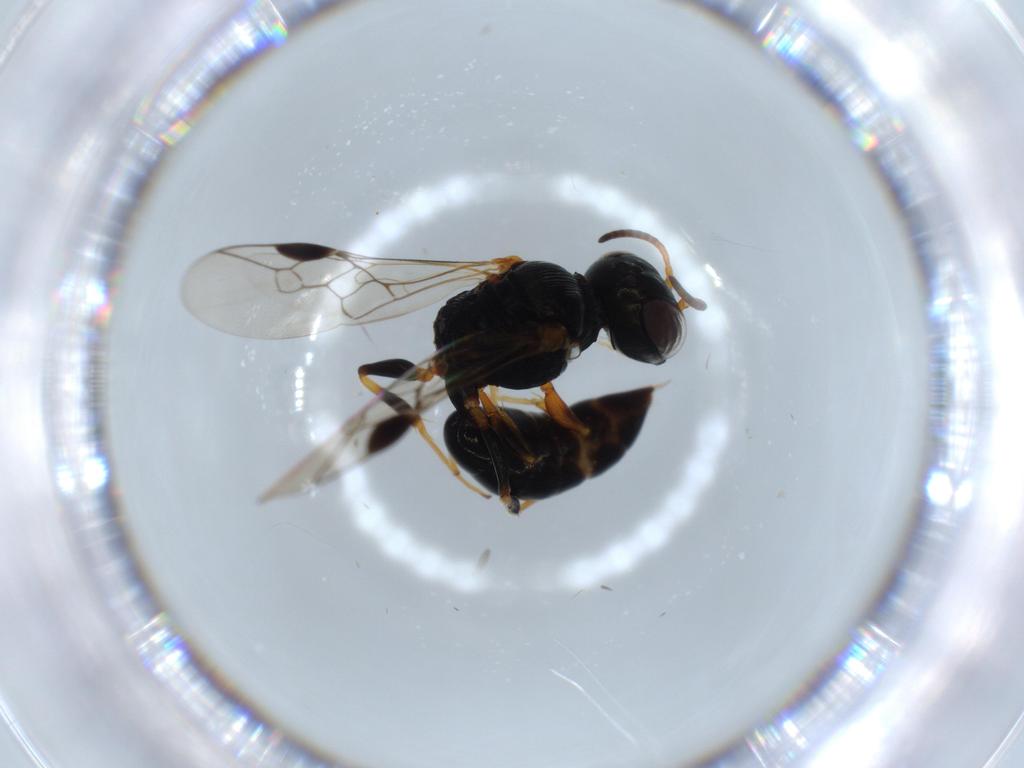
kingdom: Animalia
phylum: Arthropoda
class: Insecta
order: Hymenoptera
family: Pemphredonidae
